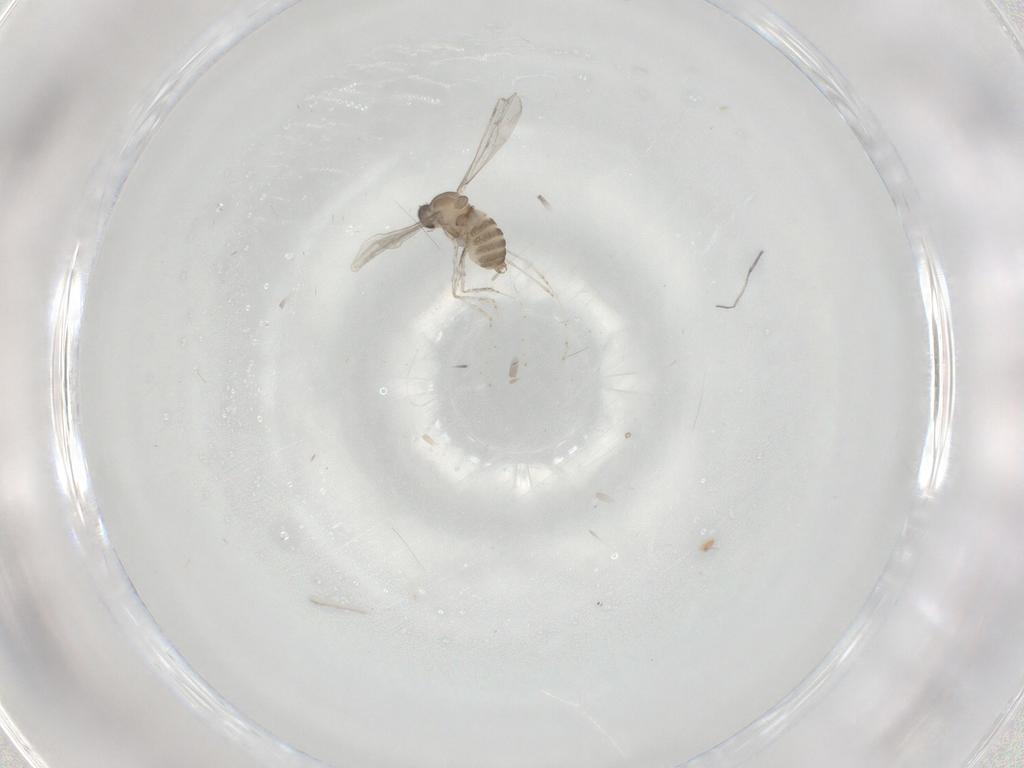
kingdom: Animalia
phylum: Arthropoda
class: Insecta
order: Diptera
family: Cecidomyiidae
